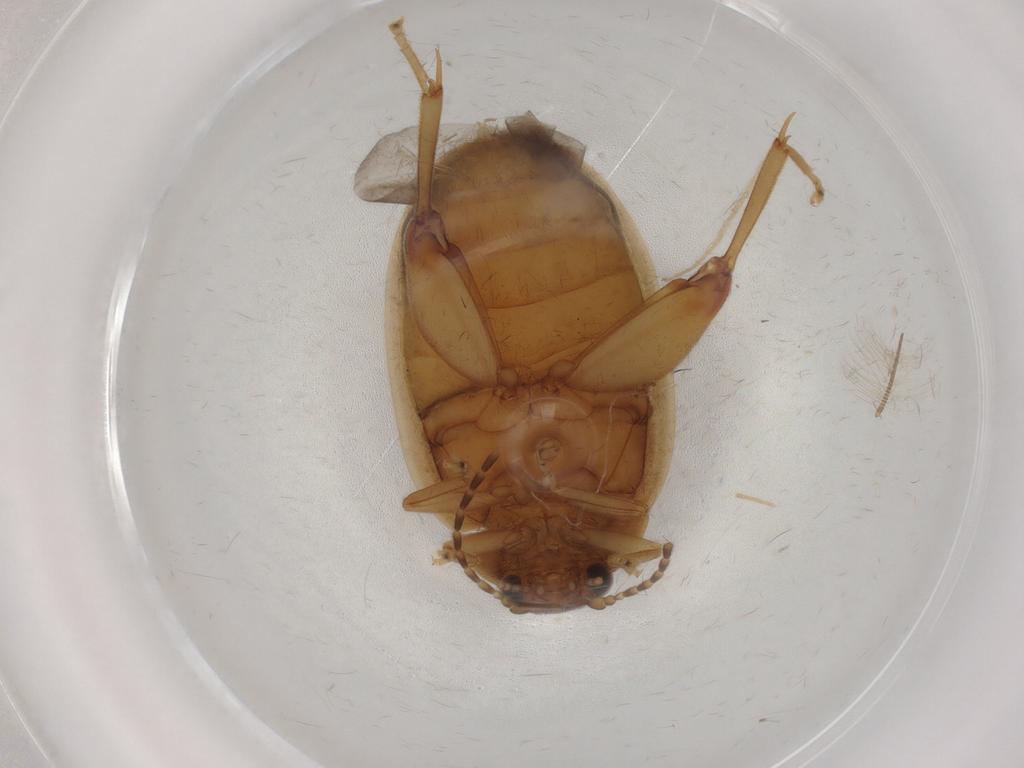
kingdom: Animalia
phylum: Arthropoda
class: Insecta
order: Coleoptera
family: Scirtidae
